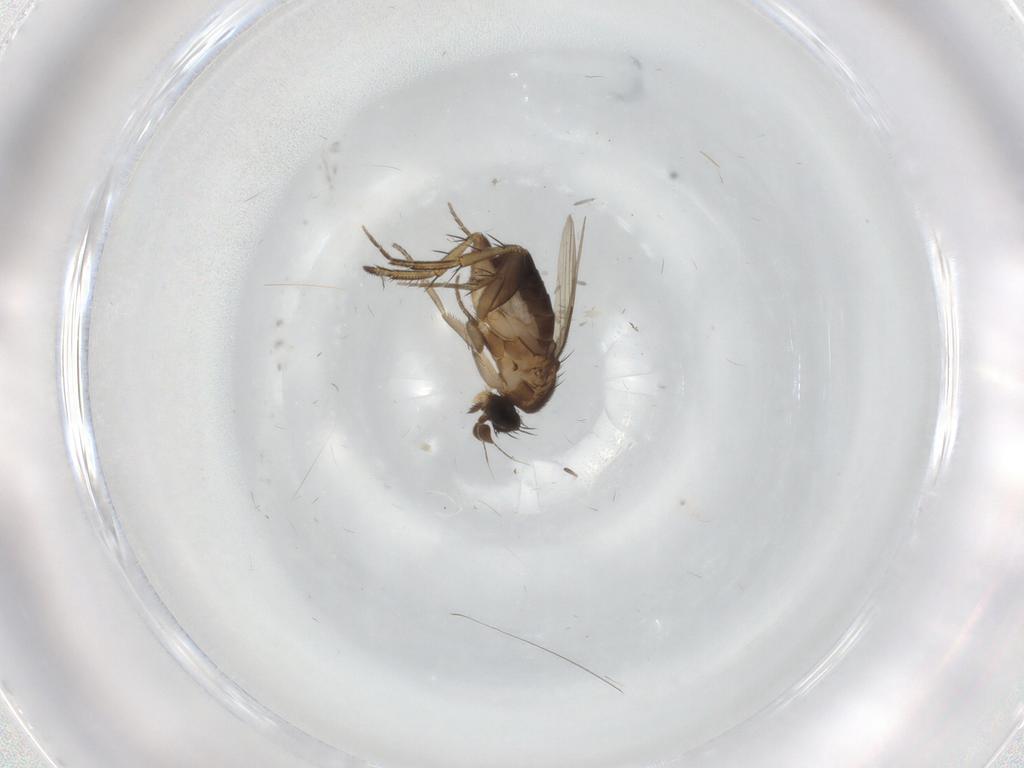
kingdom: Animalia
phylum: Arthropoda
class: Insecta
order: Diptera
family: Phoridae
